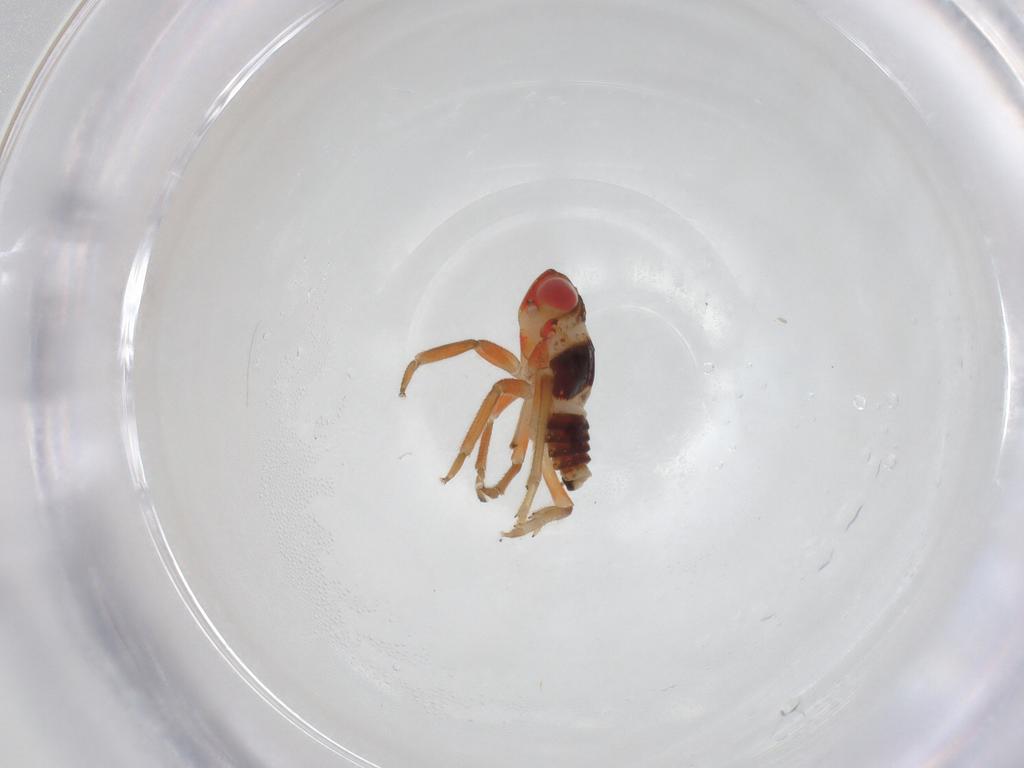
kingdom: Animalia
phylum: Arthropoda
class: Insecta
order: Hemiptera
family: Issidae
